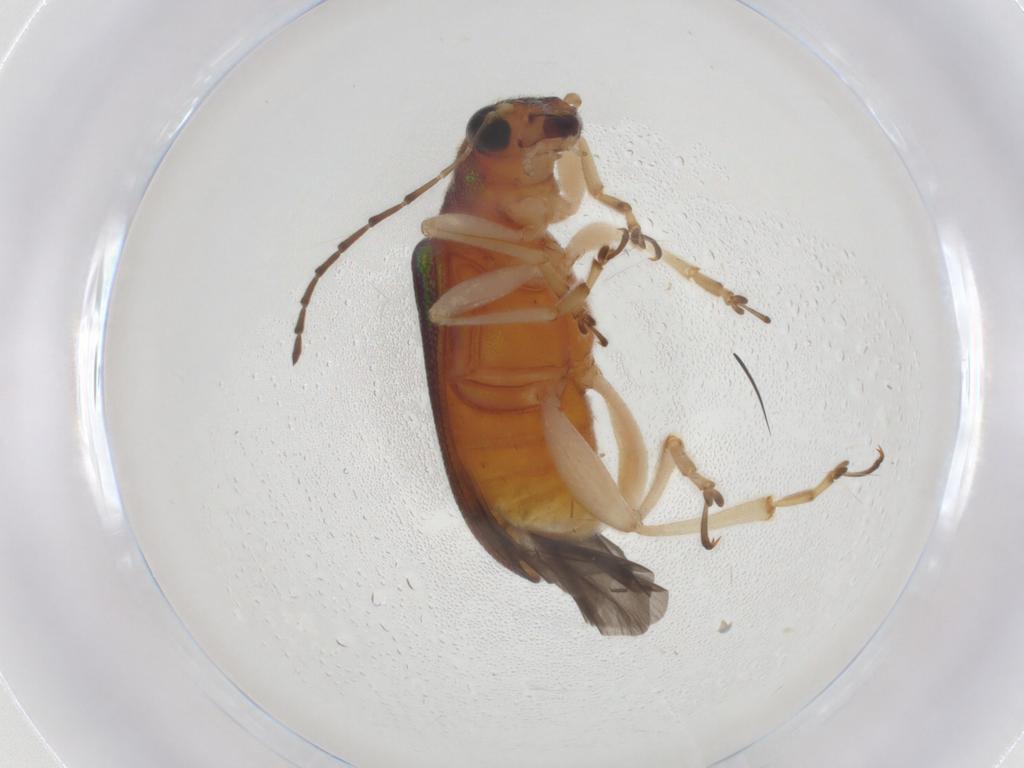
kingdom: Animalia
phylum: Arthropoda
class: Insecta
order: Coleoptera
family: Chrysomelidae
